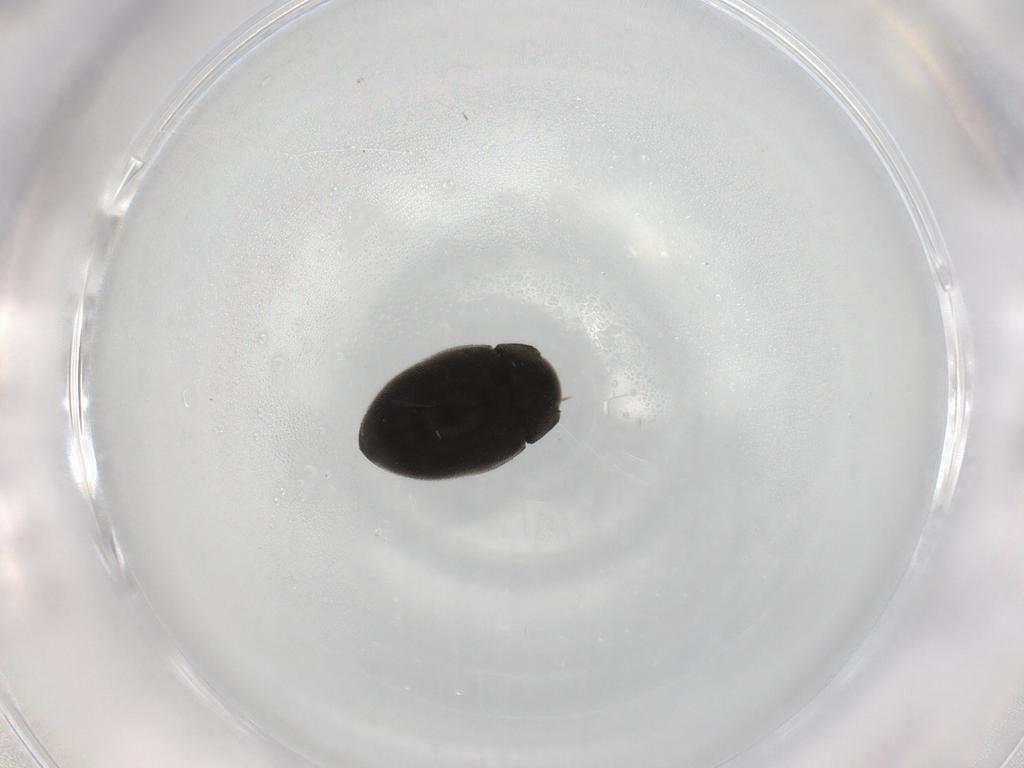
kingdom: Animalia
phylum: Arthropoda
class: Insecta
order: Coleoptera
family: Limnichidae
